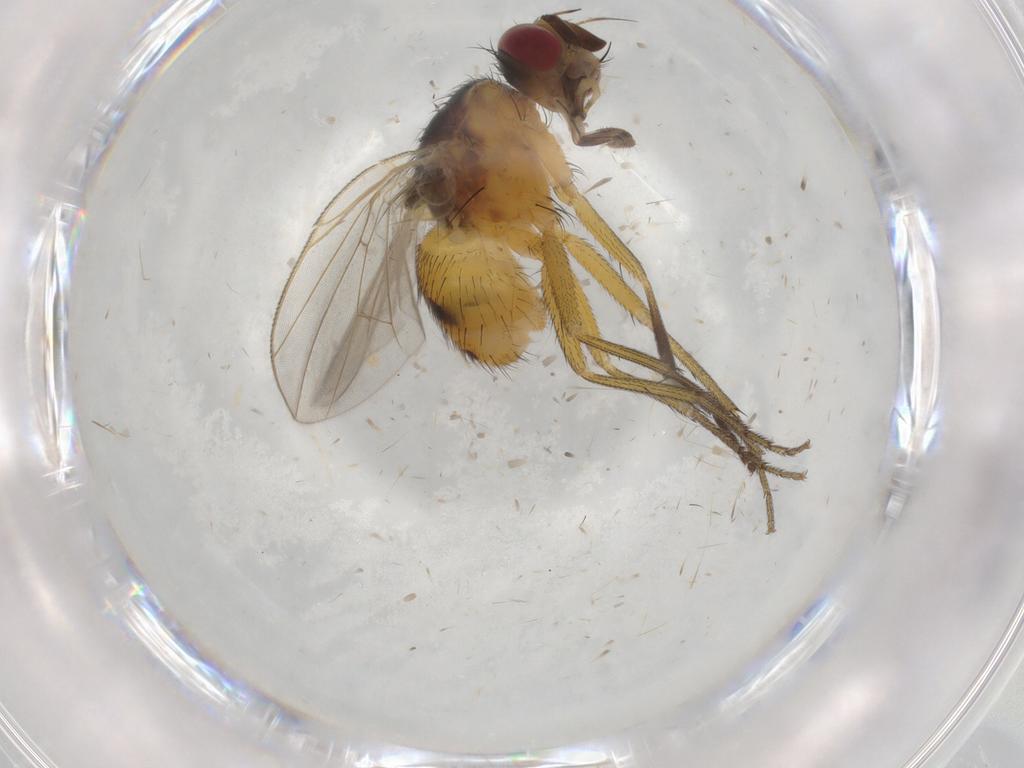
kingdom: Animalia
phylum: Arthropoda
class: Insecta
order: Diptera
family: Muscidae
